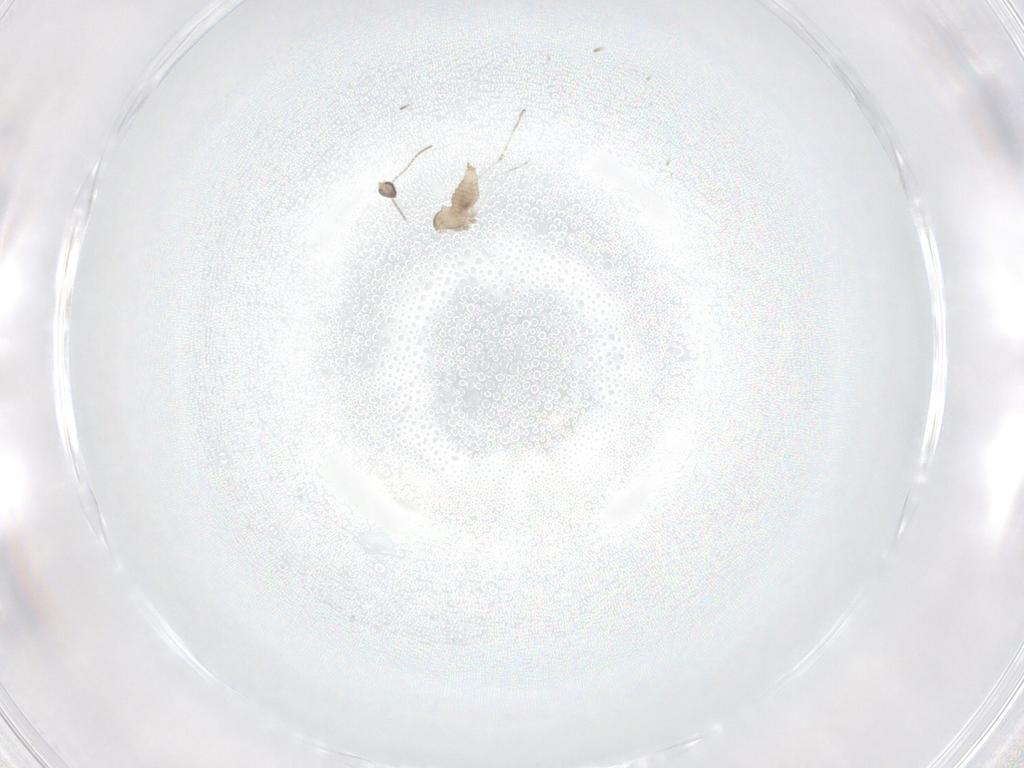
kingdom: Animalia
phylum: Arthropoda
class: Insecta
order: Diptera
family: Cecidomyiidae
